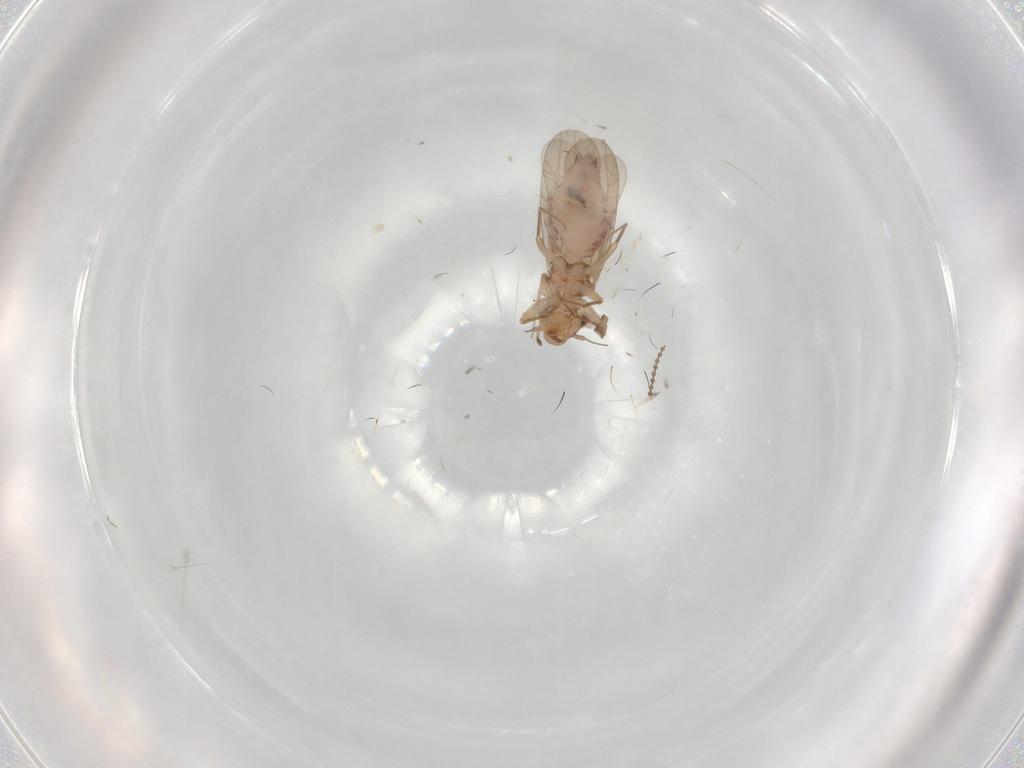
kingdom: Animalia
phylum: Arthropoda
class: Insecta
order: Psocodea
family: Lepidopsocidae
